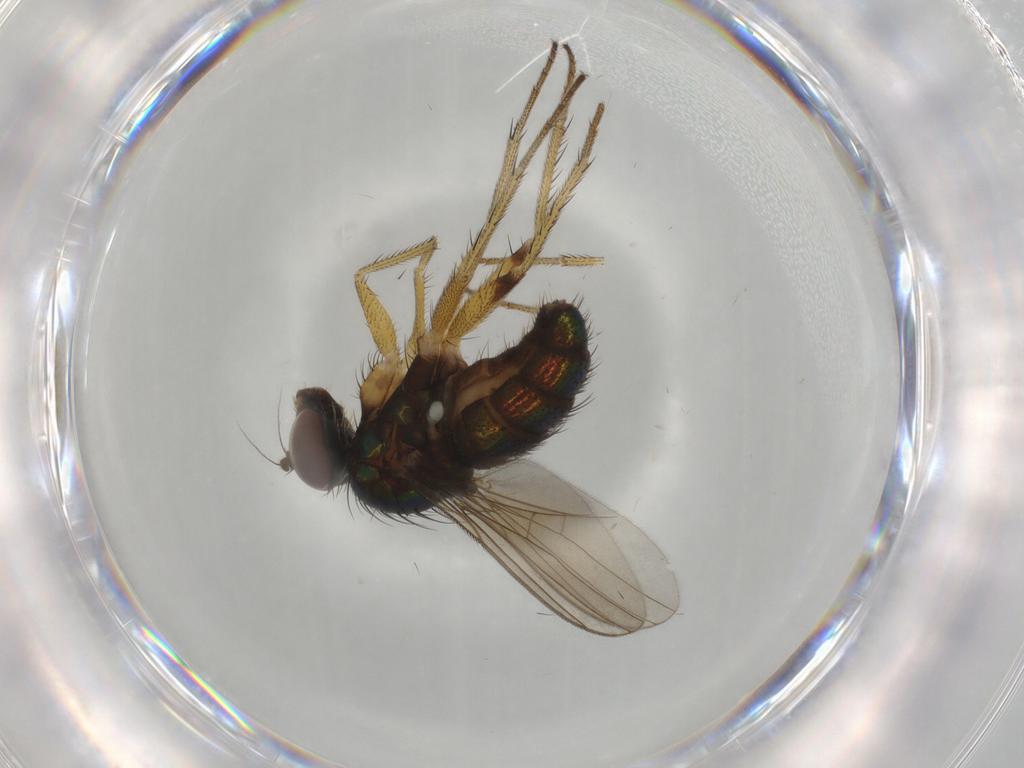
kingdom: Animalia
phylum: Arthropoda
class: Insecta
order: Diptera
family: Dolichopodidae
